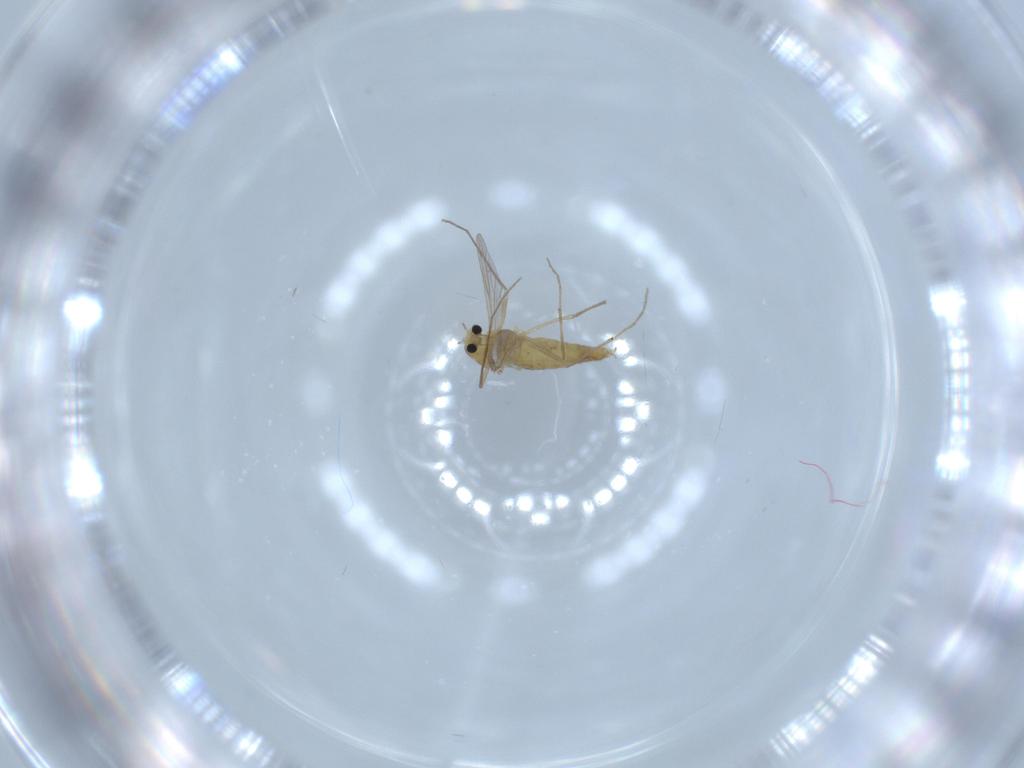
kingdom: Animalia
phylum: Arthropoda
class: Insecta
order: Diptera
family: Chironomidae
